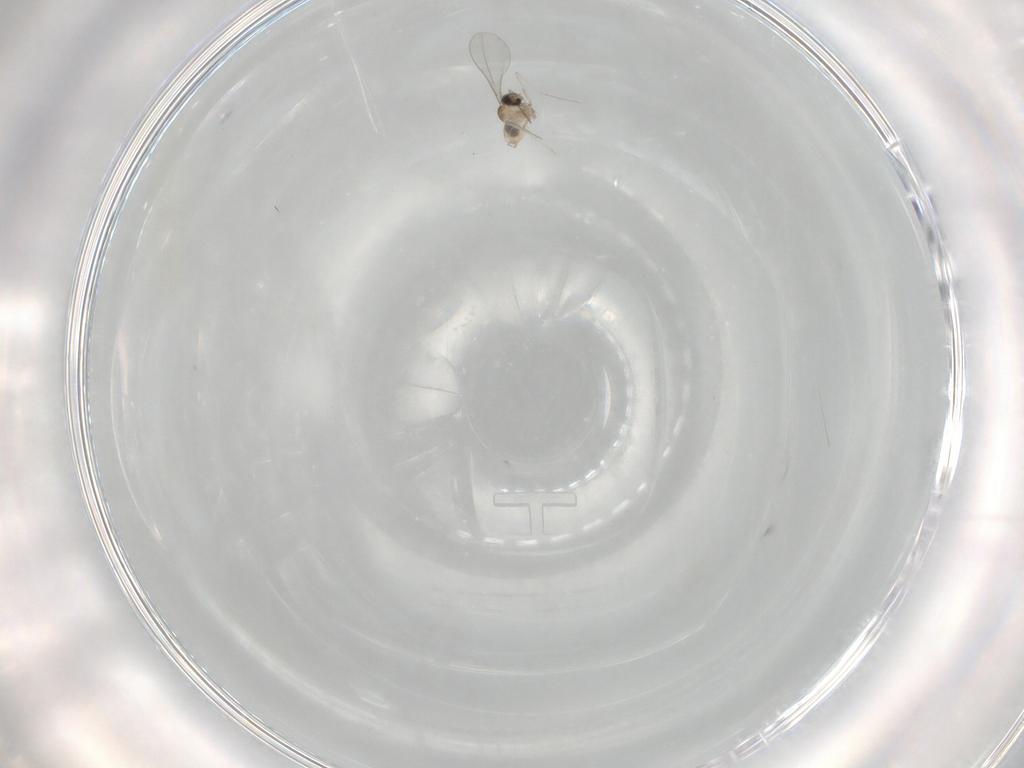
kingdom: Animalia
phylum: Arthropoda
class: Insecta
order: Diptera
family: Cecidomyiidae
